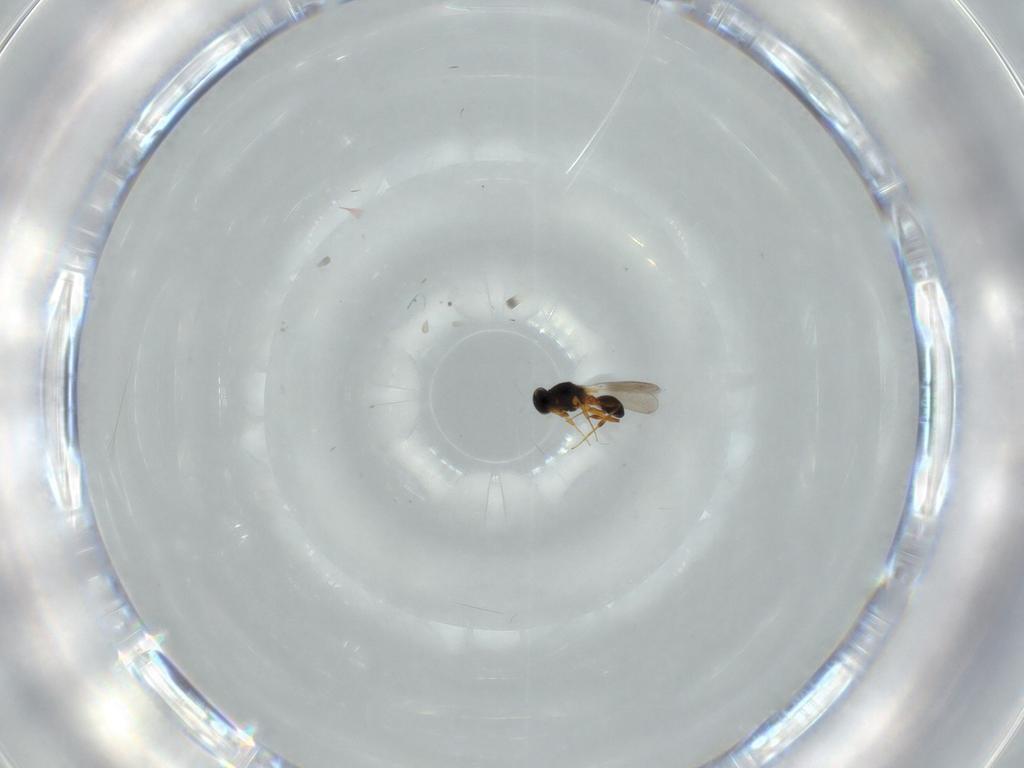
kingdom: Animalia
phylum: Arthropoda
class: Insecta
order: Hymenoptera
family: Platygastridae
